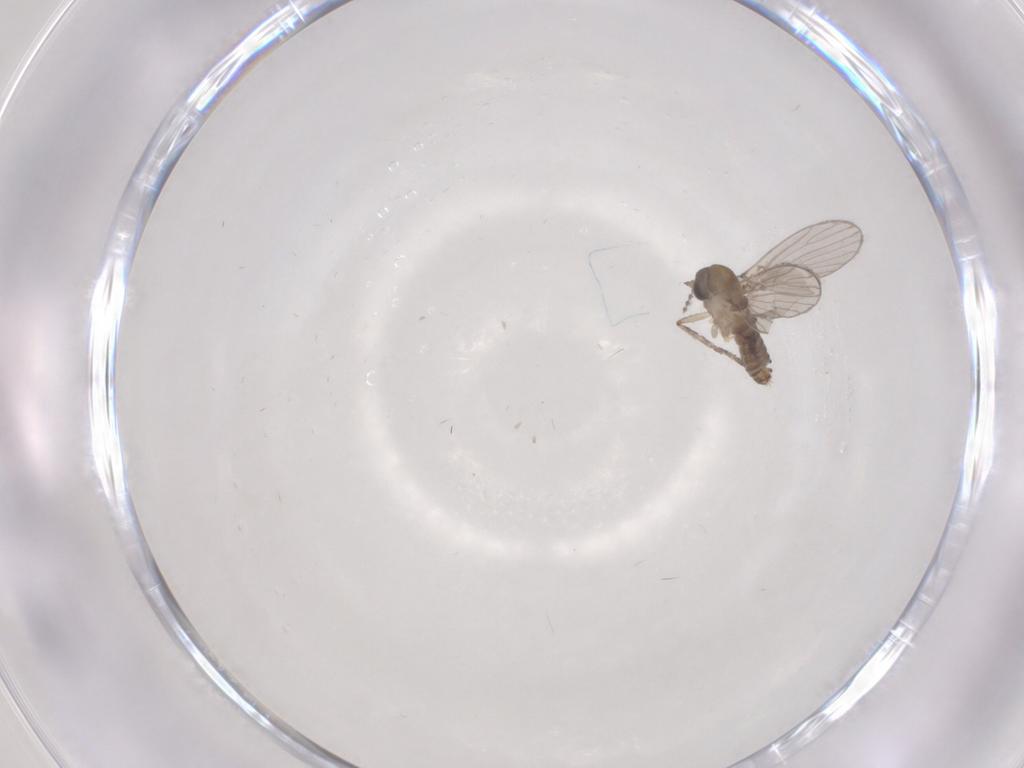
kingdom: Animalia
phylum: Arthropoda
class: Insecta
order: Diptera
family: Psychodidae
